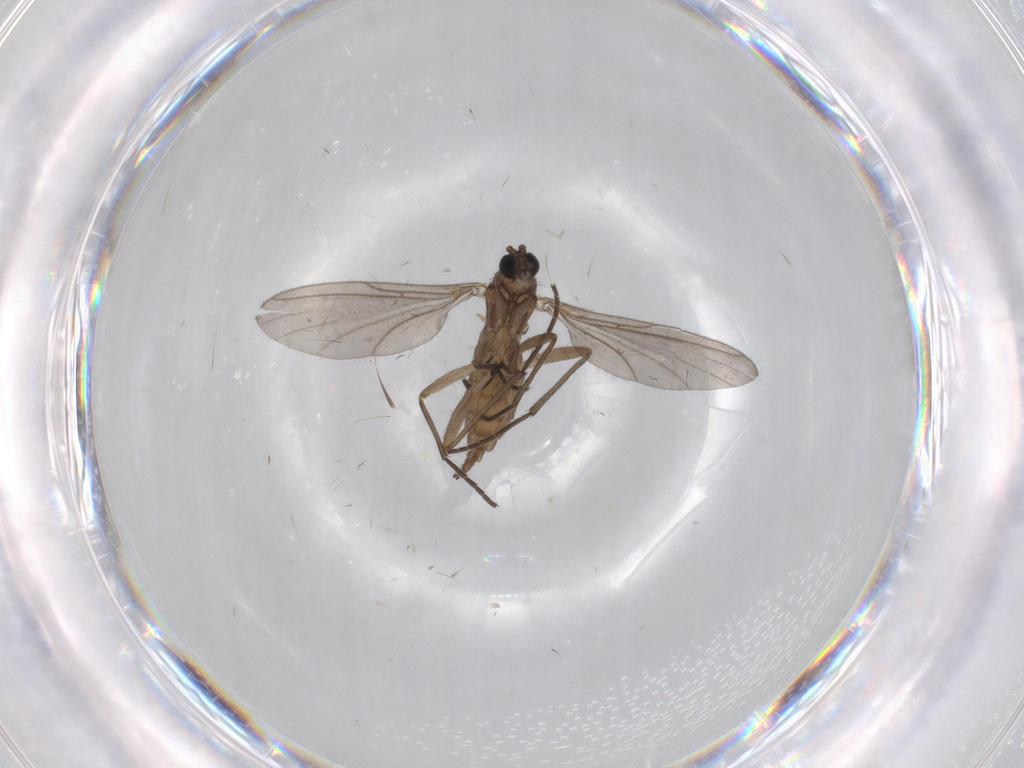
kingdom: Animalia
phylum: Arthropoda
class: Insecta
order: Diptera
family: Sciaridae
